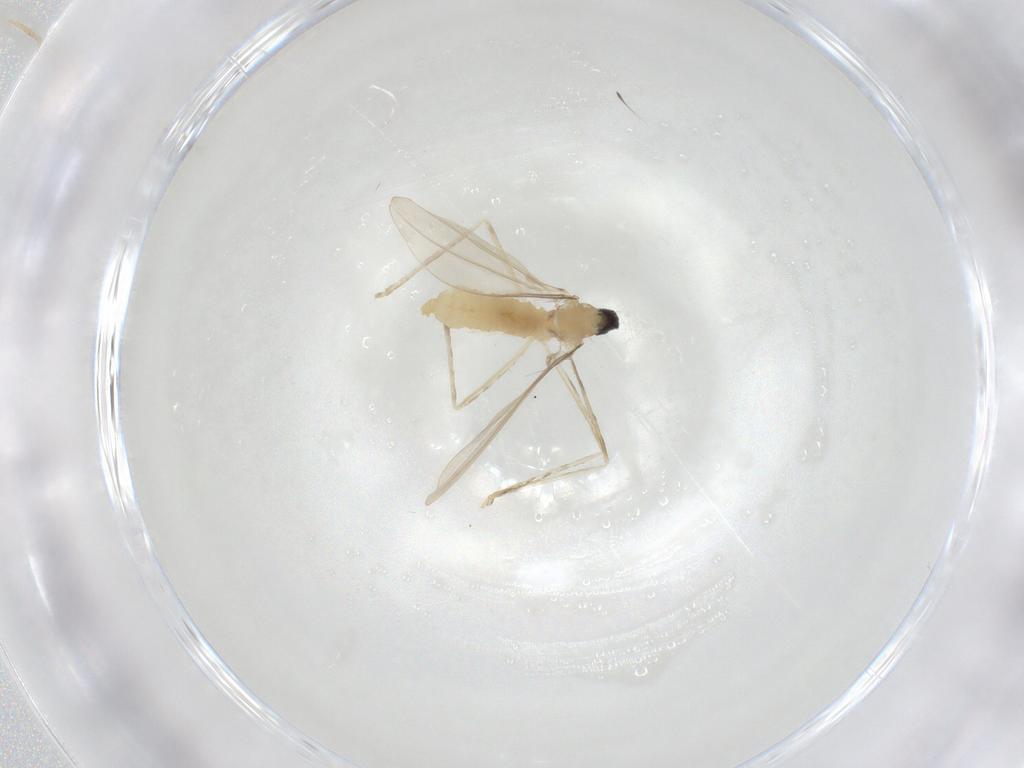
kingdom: Animalia
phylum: Arthropoda
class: Insecta
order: Diptera
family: Cecidomyiidae
